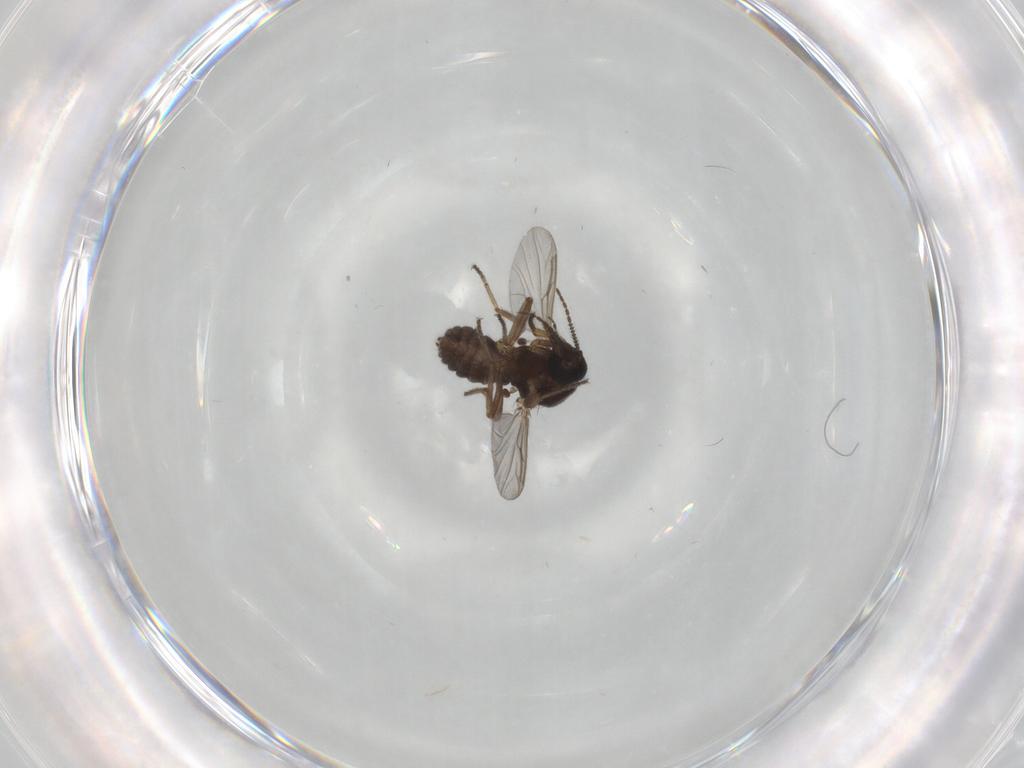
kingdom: Animalia
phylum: Arthropoda
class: Insecta
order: Diptera
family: Ceratopogonidae
